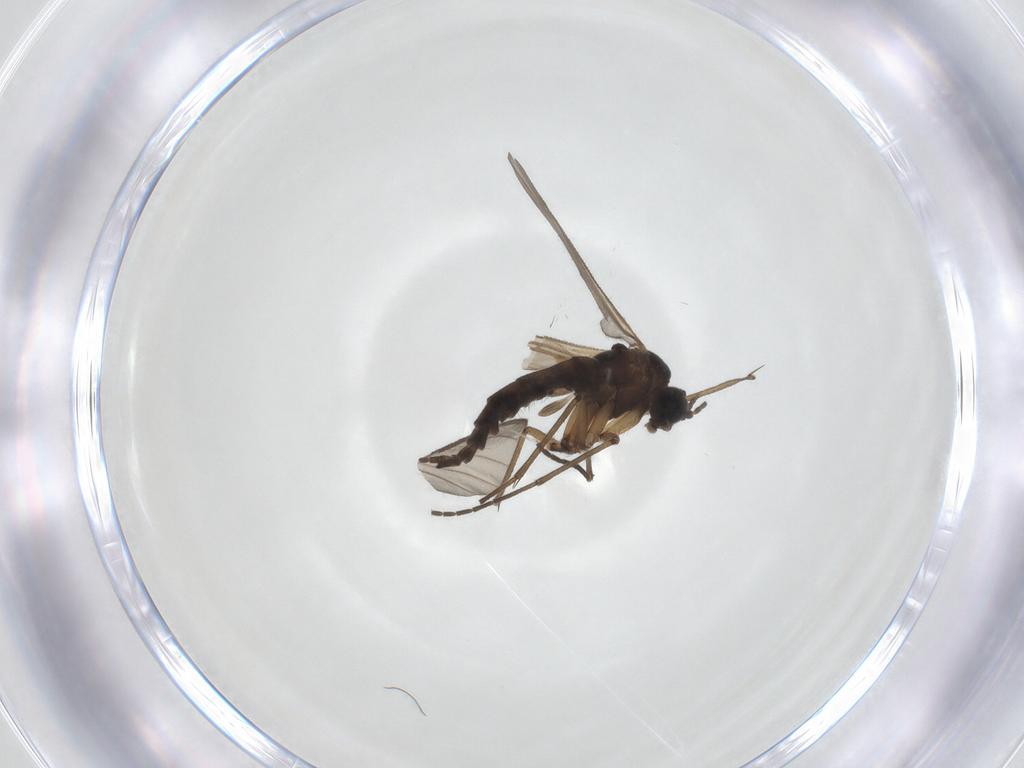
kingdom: Animalia
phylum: Arthropoda
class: Insecta
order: Diptera
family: Sciaridae
